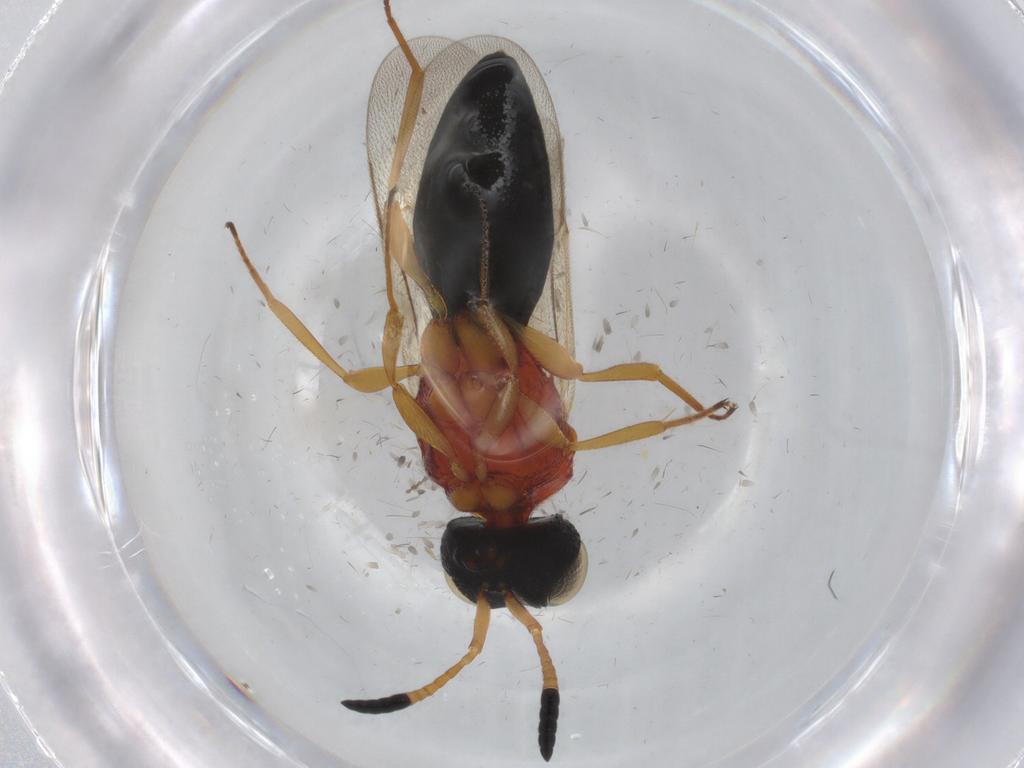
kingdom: Animalia
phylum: Arthropoda
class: Insecta
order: Hymenoptera
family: Scelionidae
